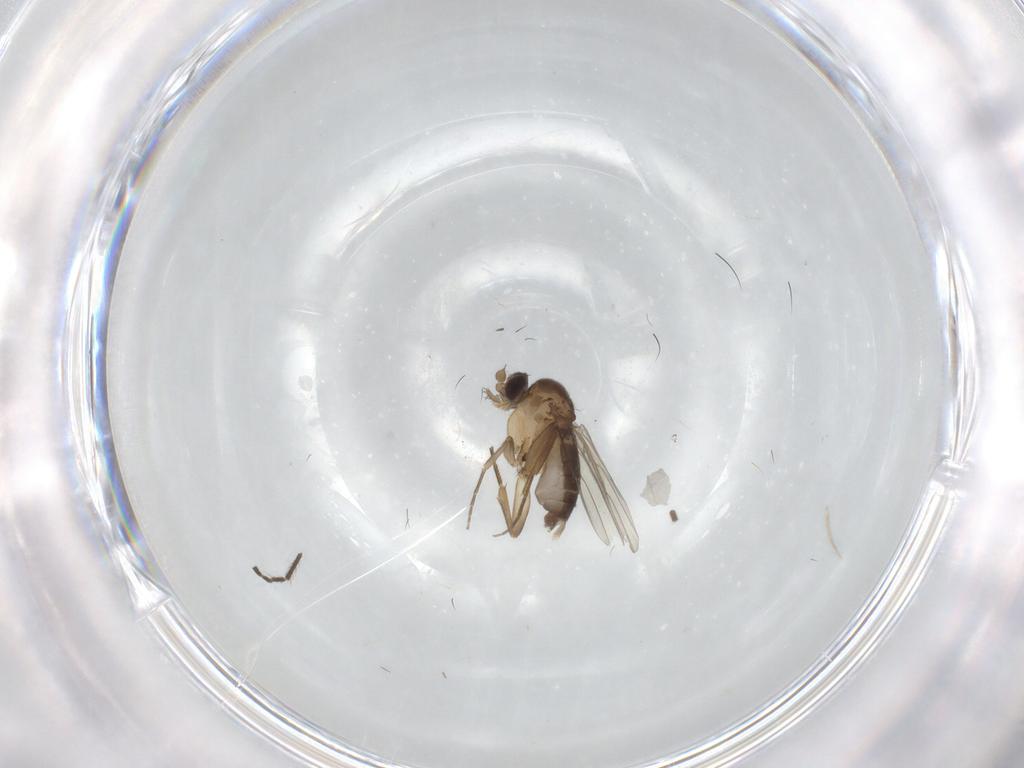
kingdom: Animalia
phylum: Arthropoda
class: Insecta
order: Diptera
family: Phoridae
